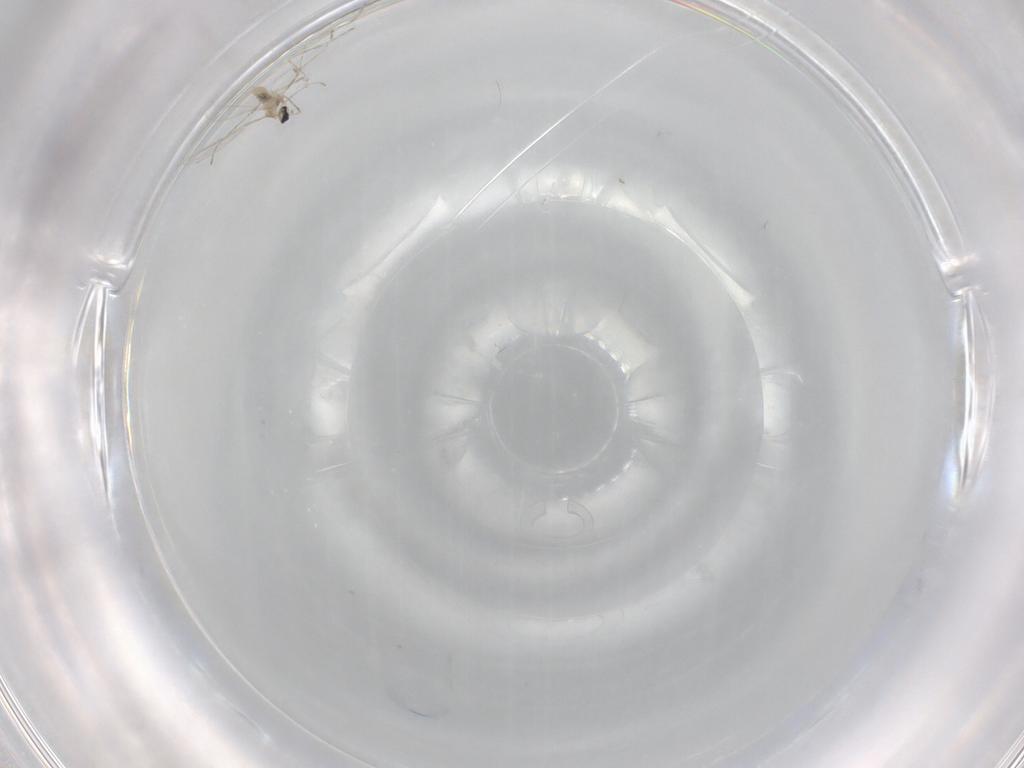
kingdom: Animalia
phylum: Arthropoda
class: Insecta
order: Diptera
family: Cecidomyiidae
